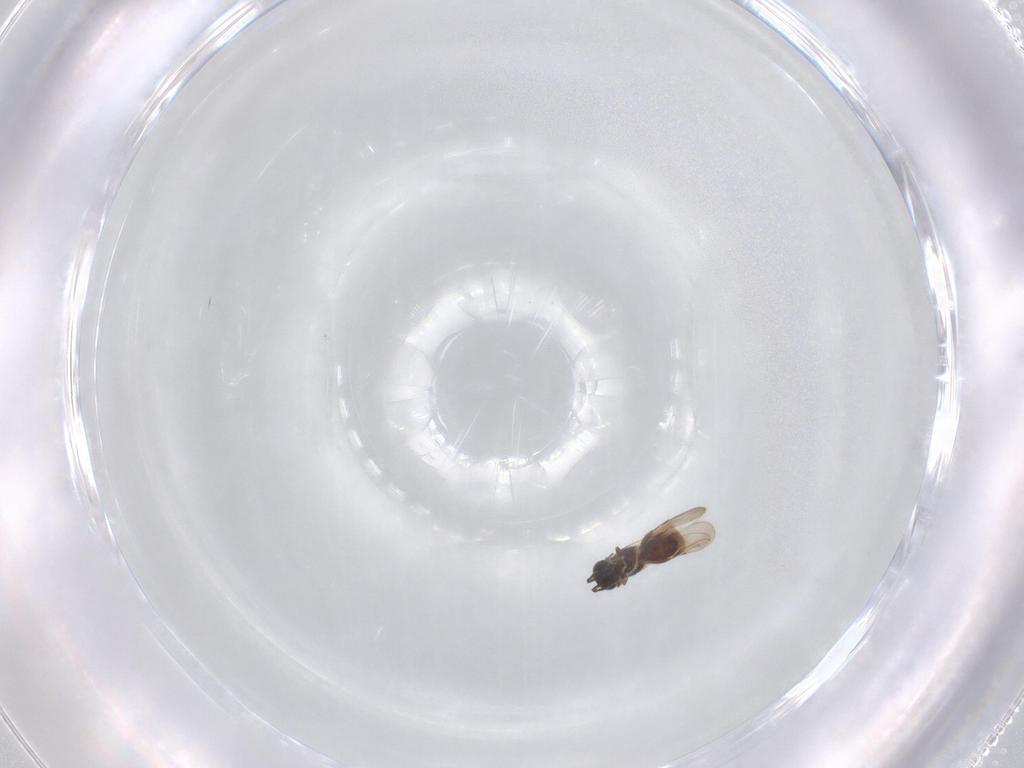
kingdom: Animalia
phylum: Arthropoda
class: Insecta
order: Hymenoptera
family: Ceraphronidae
